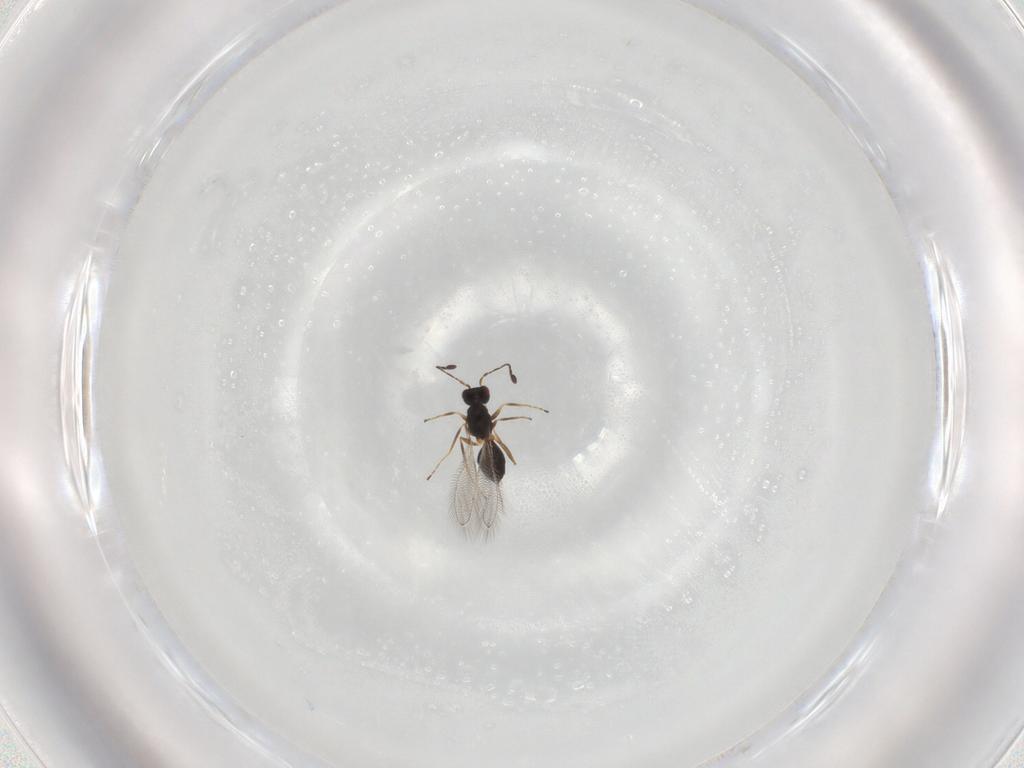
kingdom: Animalia
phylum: Arthropoda
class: Insecta
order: Hymenoptera
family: Mymaridae
